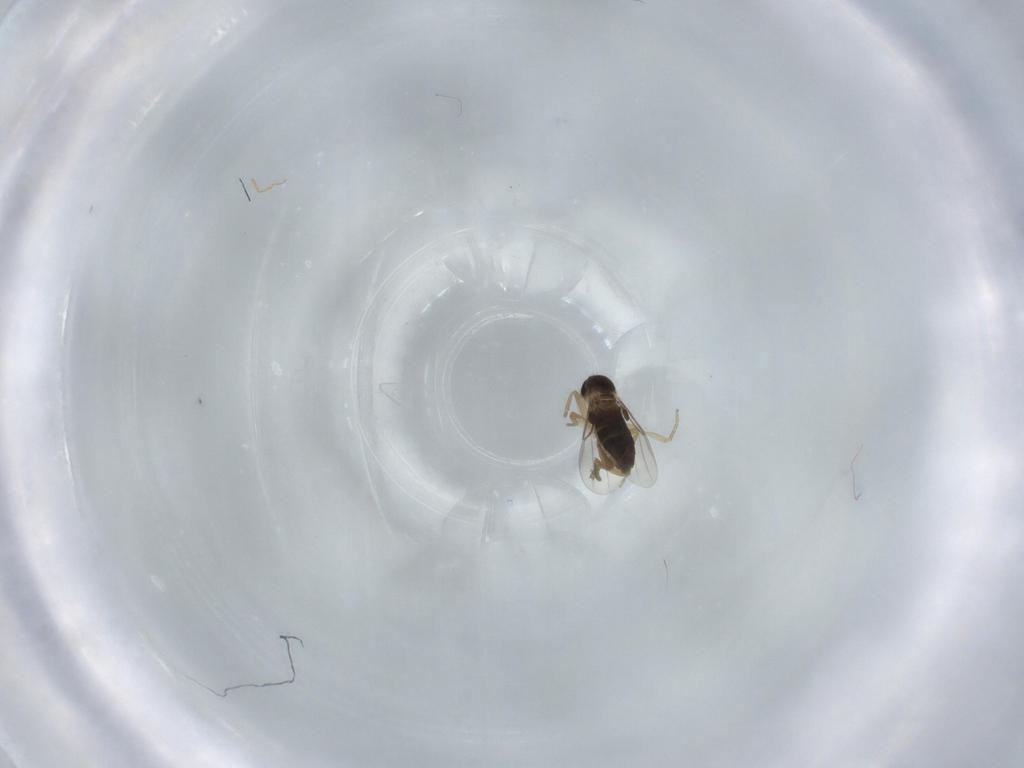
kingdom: Animalia
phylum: Arthropoda
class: Insecta
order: Diptera
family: Phoridae
